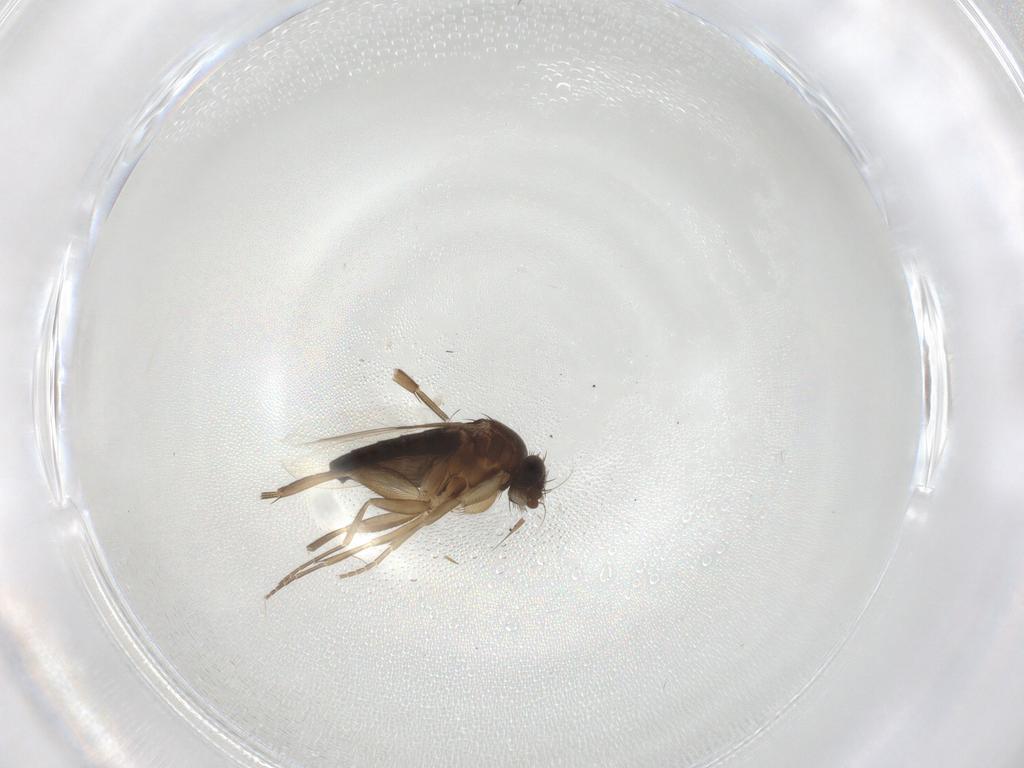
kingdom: Animalia
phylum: Arthropoda
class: Insecta
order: Diptera
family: Phoridae
